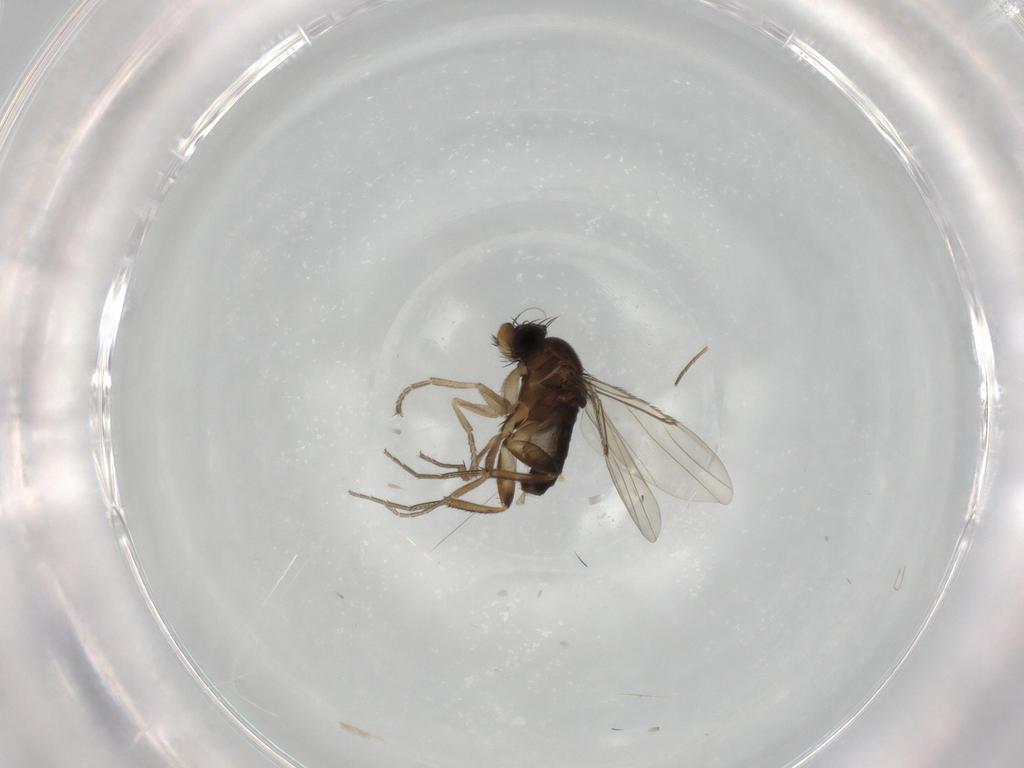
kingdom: Animalia
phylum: Arthropoda
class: Insecta
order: Diptera
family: Phoridae
